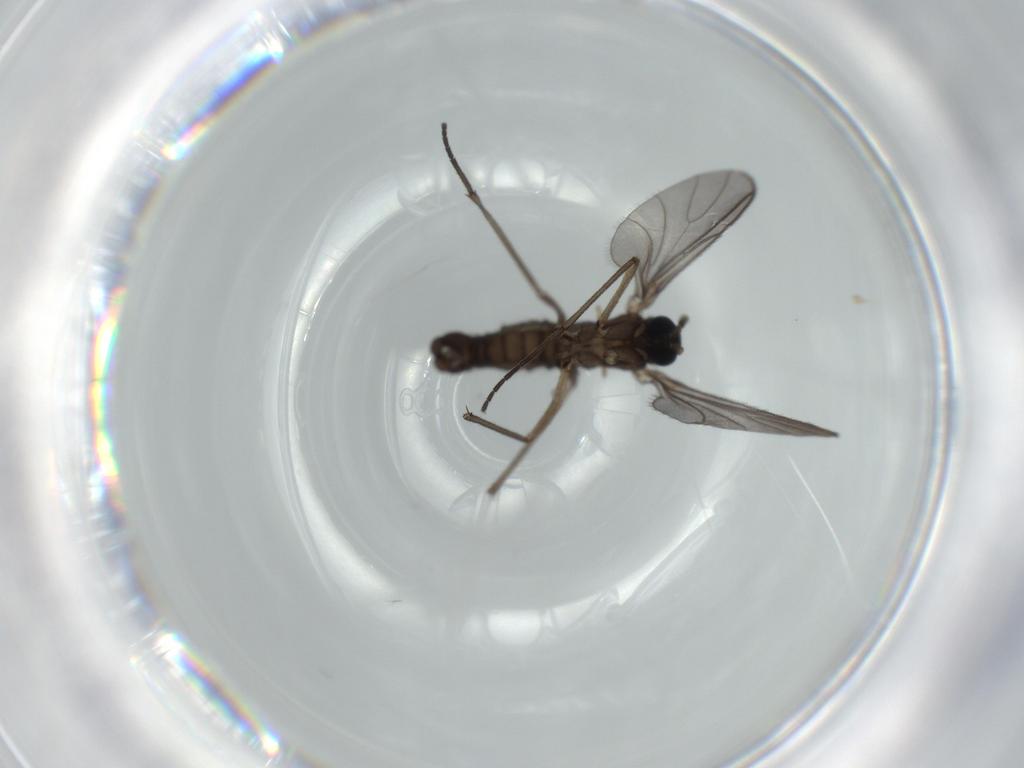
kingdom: Animalia
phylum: Arthropoda
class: Insecta
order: Diptera
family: Sciaridae
